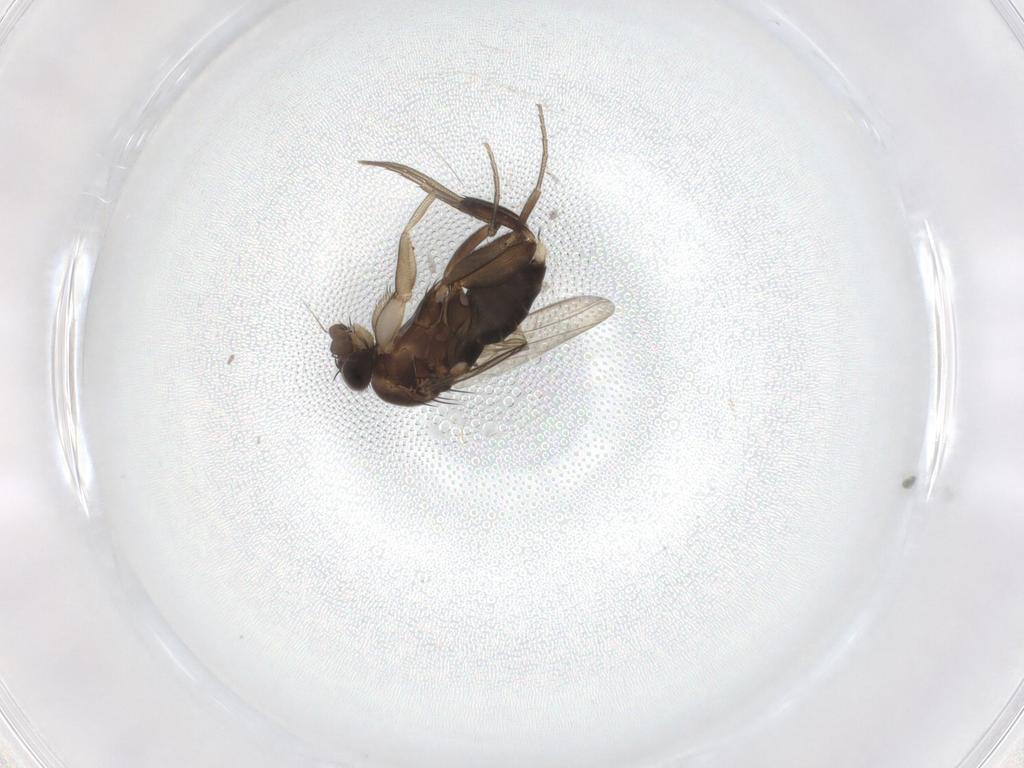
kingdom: Animalia
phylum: Arthropoda
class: Insecta
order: Diptera
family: Phoridae
